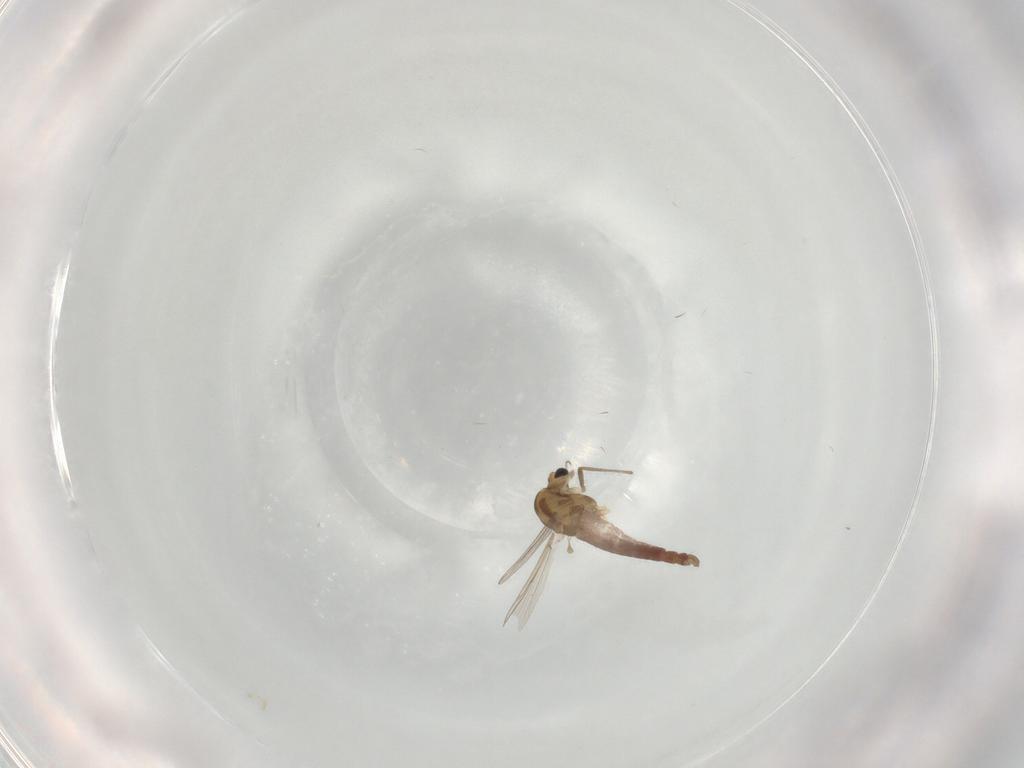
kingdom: Animalia
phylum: Arthropoda
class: Insecta
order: Diptera
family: Chironomidae
